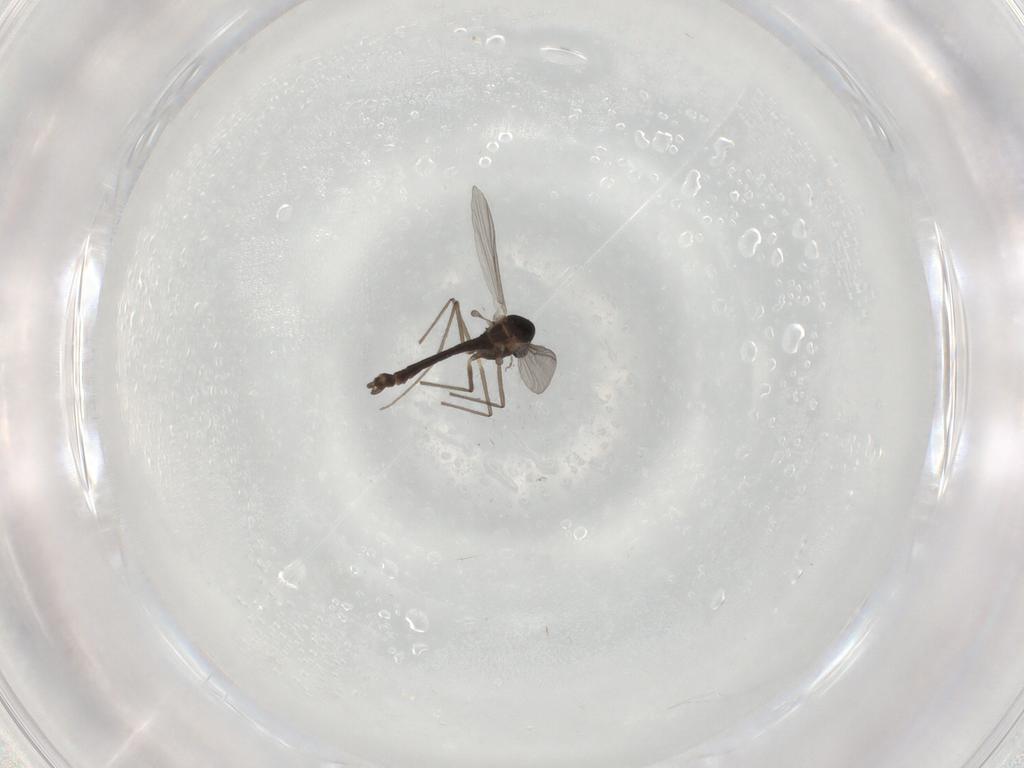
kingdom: Animalia
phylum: Arthropoda
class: Insecta
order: Diptera
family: Chironomidae
